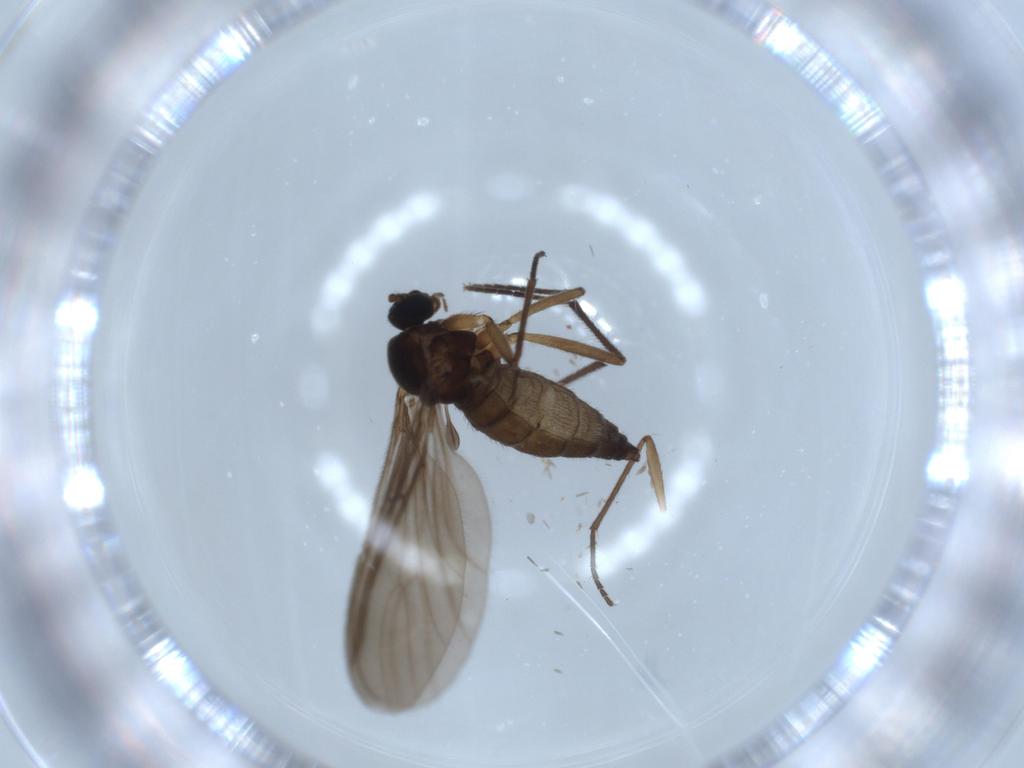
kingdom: Animalia
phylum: Arthropoda
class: Insecta
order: Diptera
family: Sciaridae
